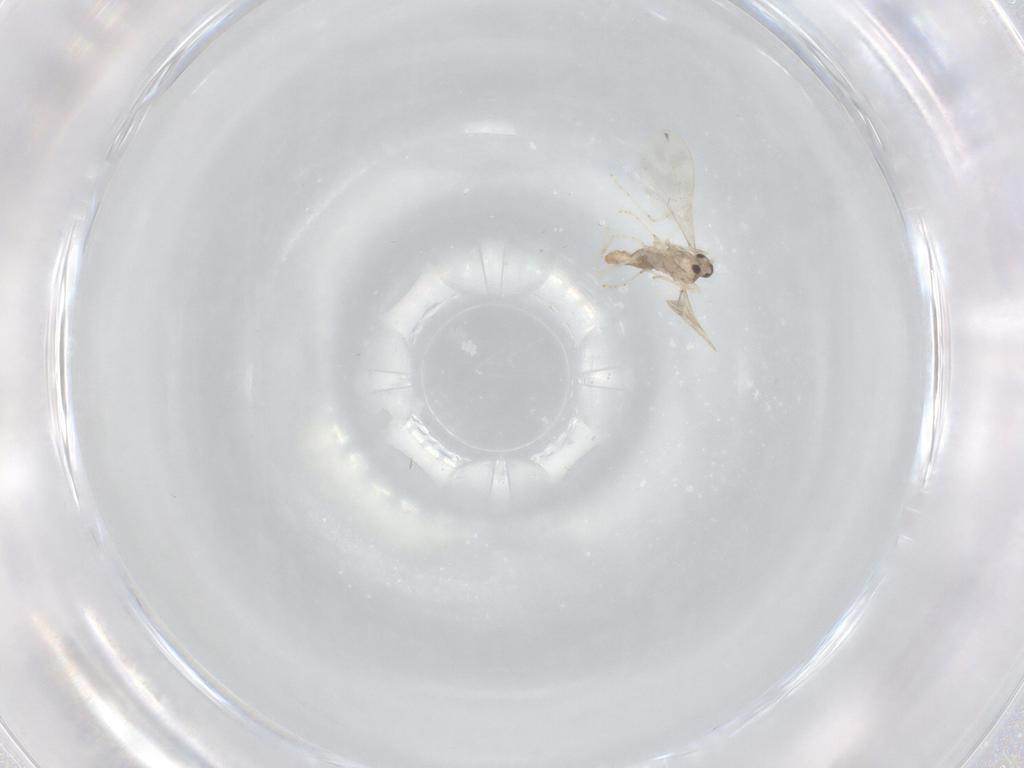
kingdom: Animalia
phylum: Arthropoda
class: Insecta
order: Diptera
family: Cecidomyiidae
